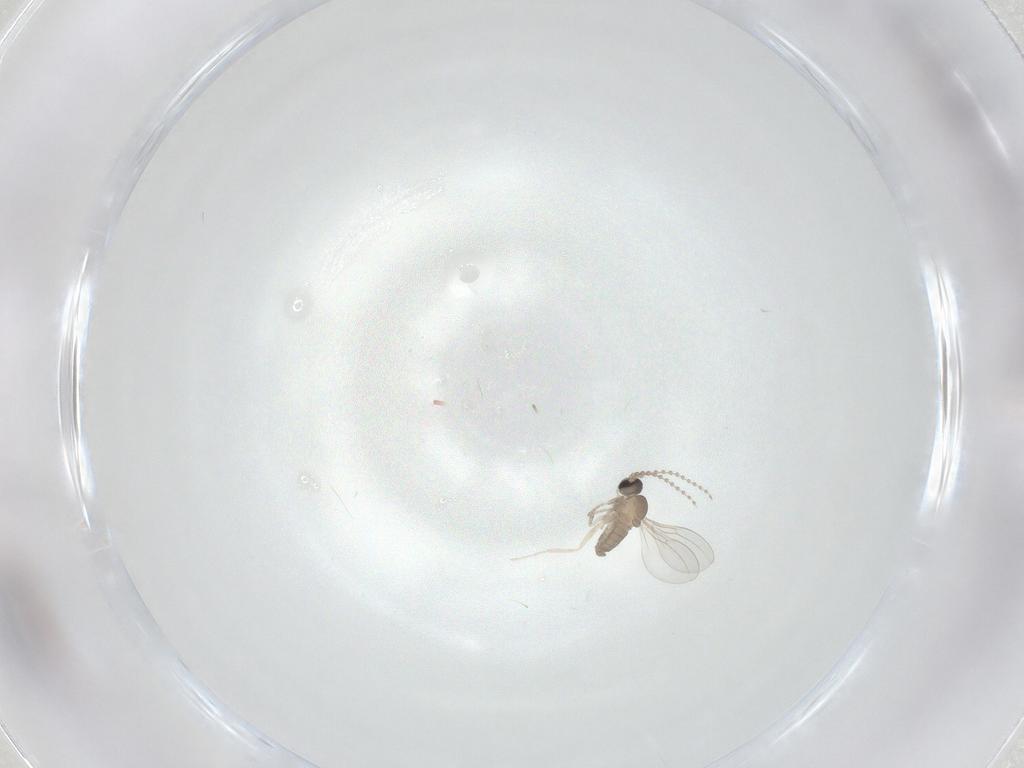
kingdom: Animalia
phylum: Arthropoda
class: Insecta
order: Diptera
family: Cecidomyiidae
